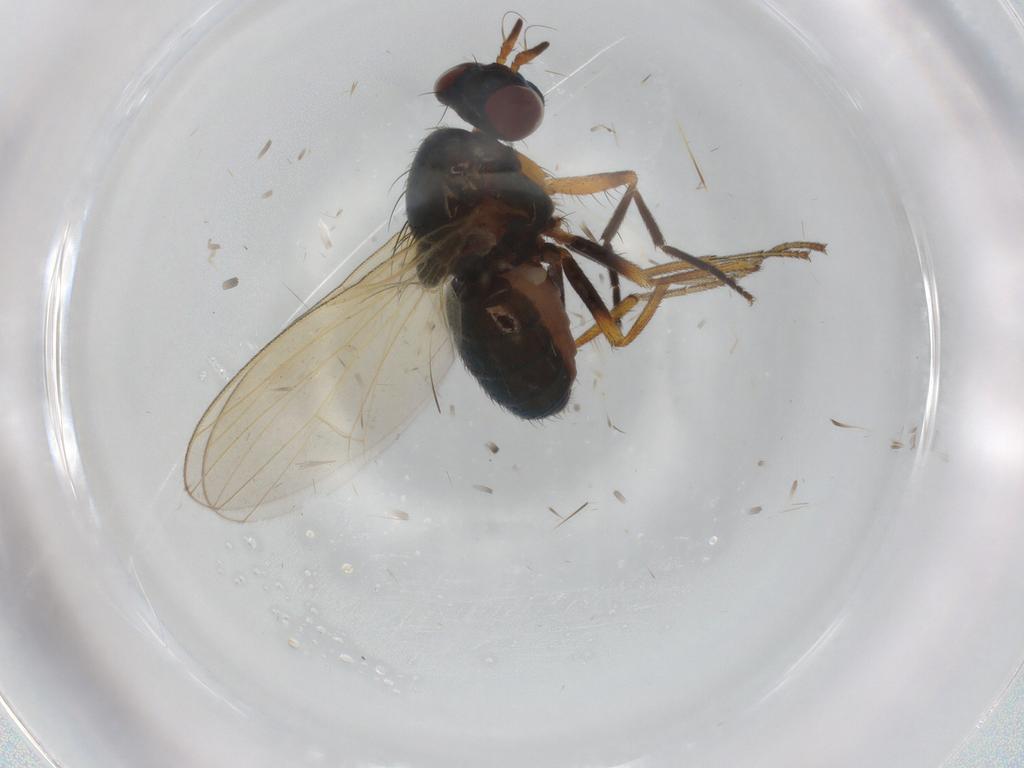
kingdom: Animalia
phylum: Arthropoda
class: Insecta
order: Diptera
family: Lauxaniidae
